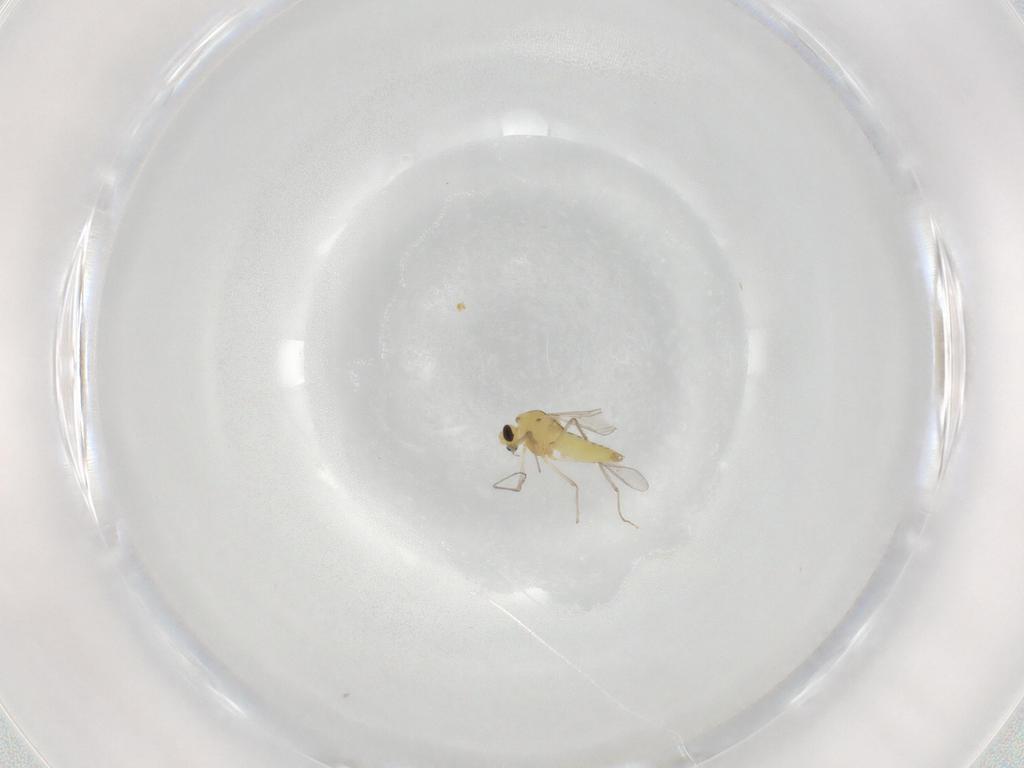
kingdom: Animalia
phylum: Arthropoda
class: Insecta
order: Diptera
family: Chironomidae
